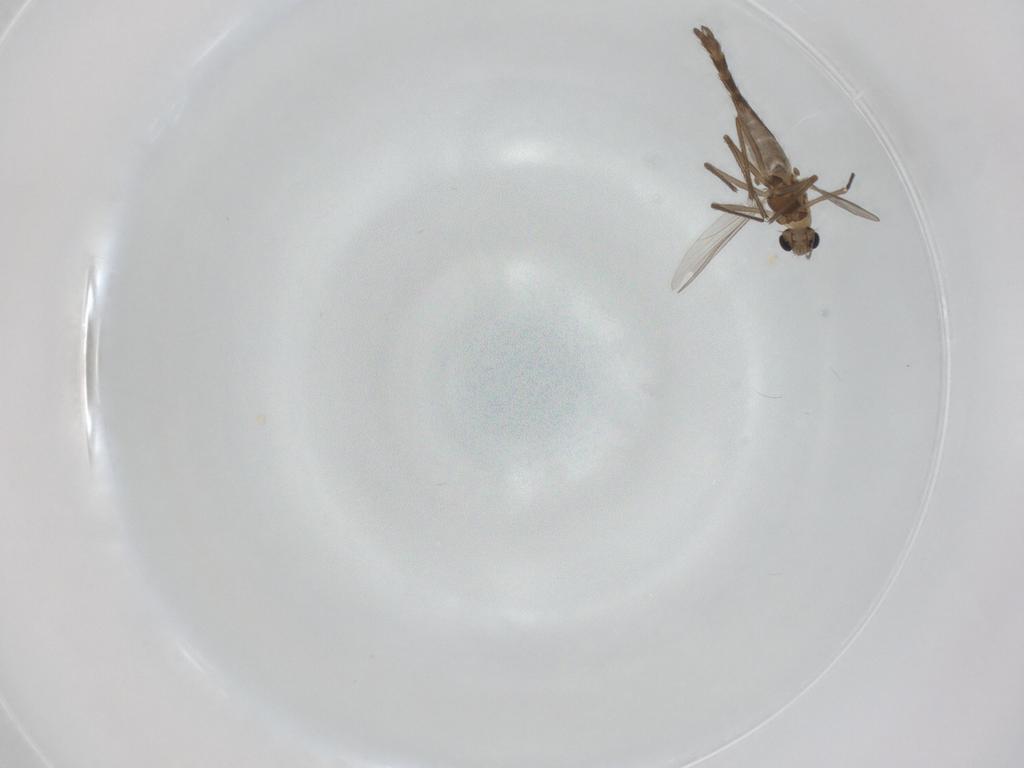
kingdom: Animalia
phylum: Arthropoda
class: Insecta
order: Diptera
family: Chironomidae
